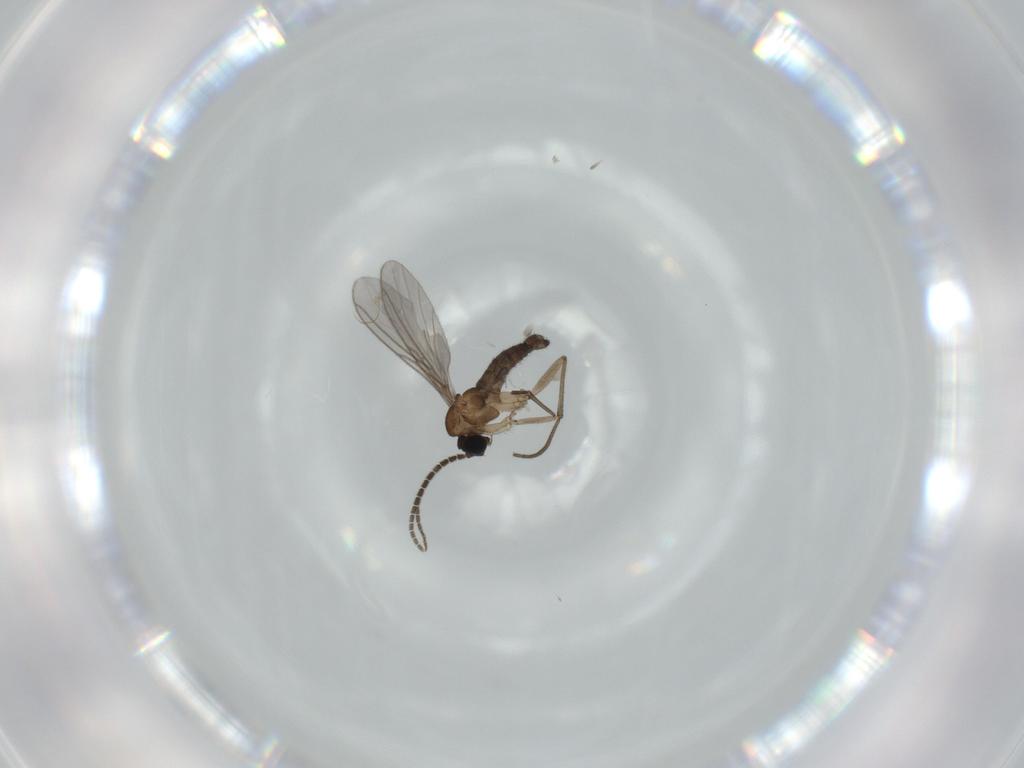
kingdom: Animalia
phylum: Arthropoda
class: Insecta
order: Diptera
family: Sciaridae
